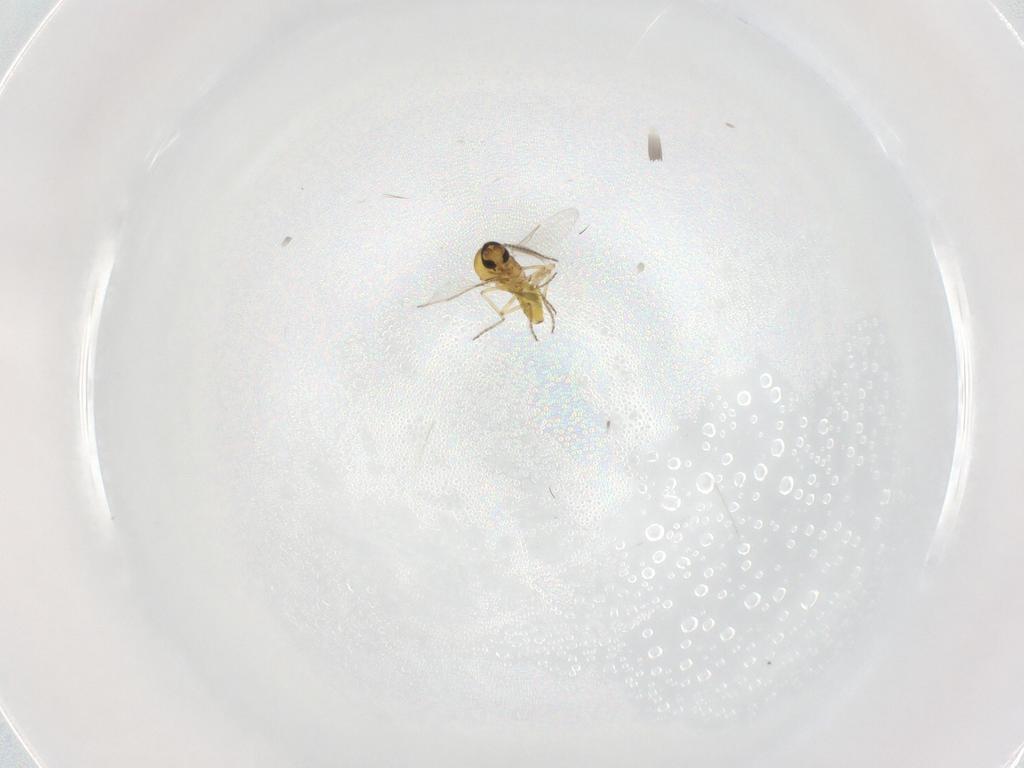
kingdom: Animalia
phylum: Arthropoda
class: Insecta
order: Diptera
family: Ceratopogonidae
